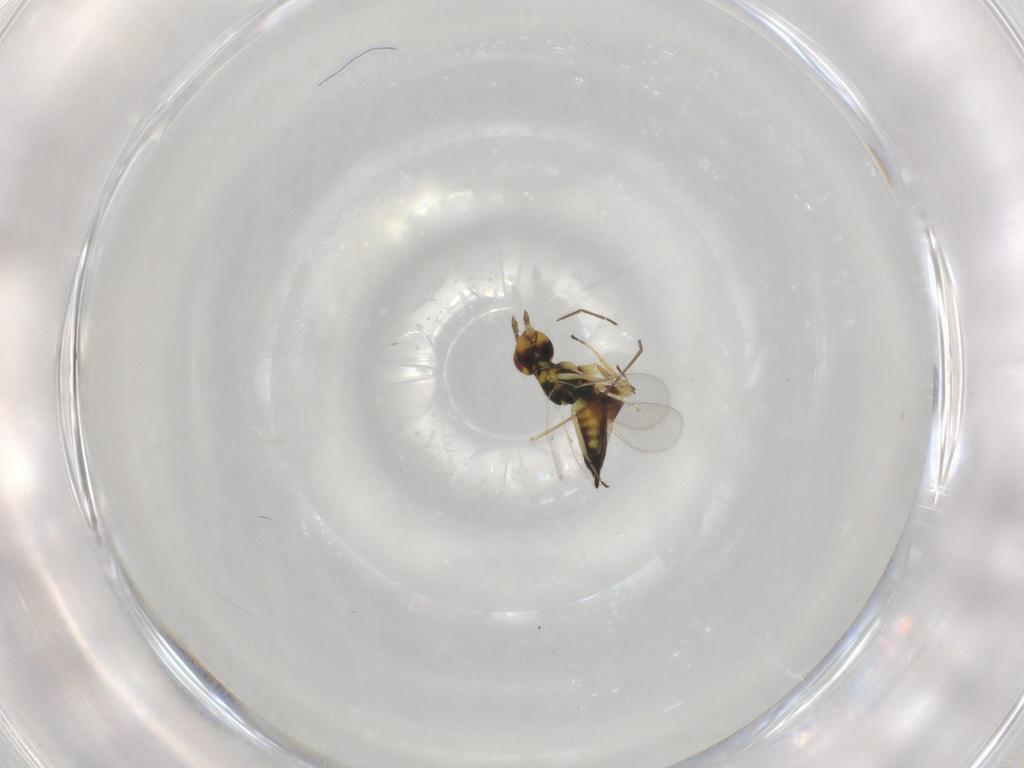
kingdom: Animalia
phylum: Arthropoda
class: Insecta
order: Hymenoptera
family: Eulophidae
